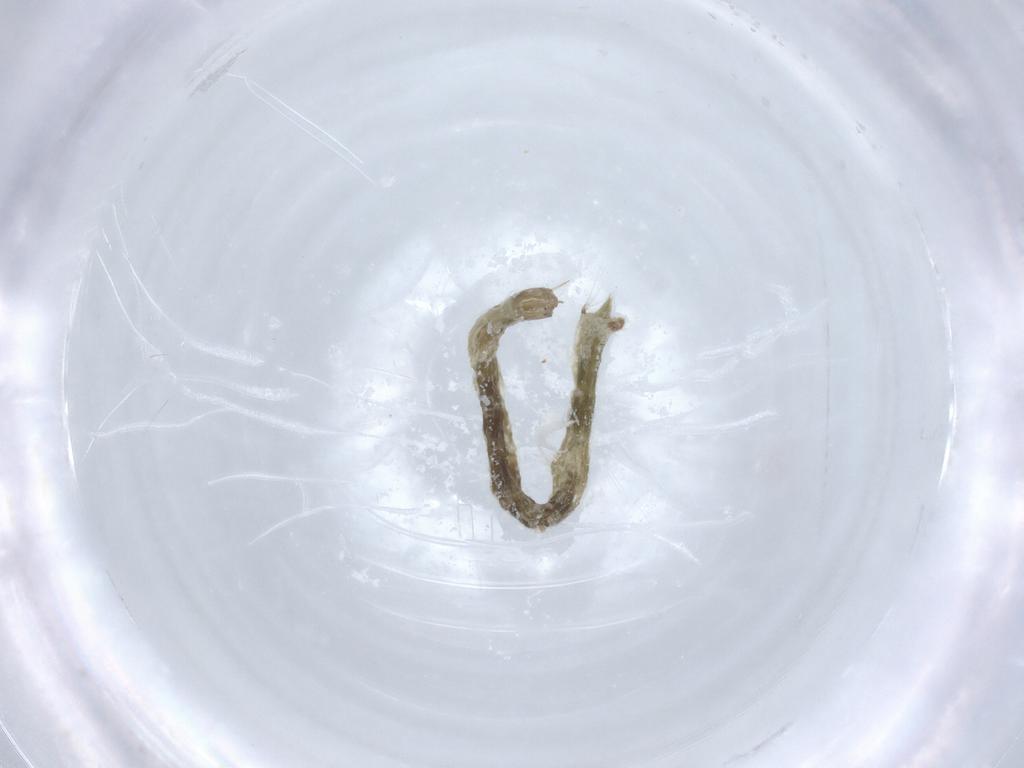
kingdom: Animalia
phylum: Arthropoda
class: Insecta
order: Diptera
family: Chironomidae
